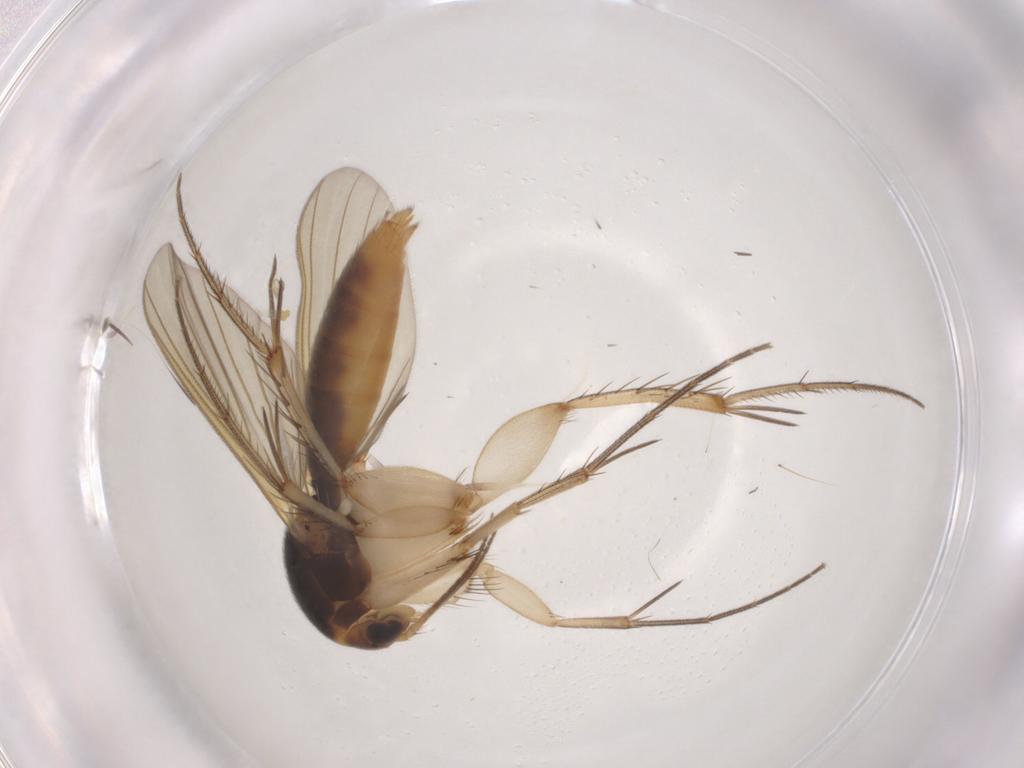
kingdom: Animalia
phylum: Arthropoda
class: Insecta
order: Diptera
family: Mycetophilidae
